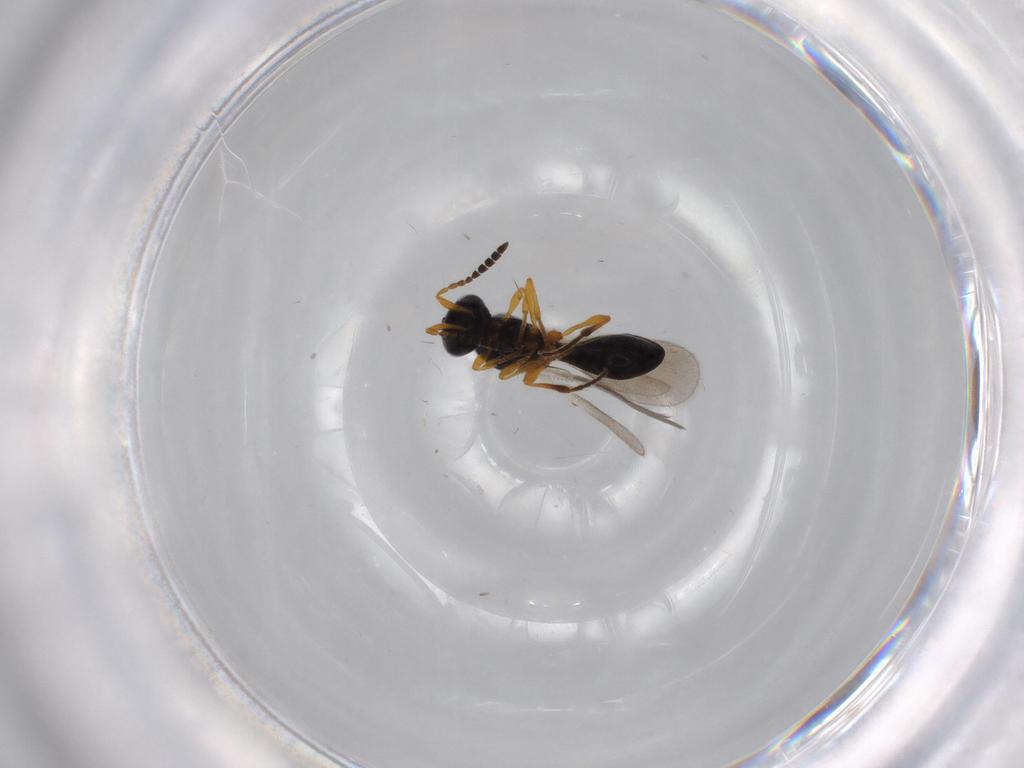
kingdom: Animalia
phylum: Arthropoda
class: Insecta
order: Hymenoptera
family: Platygastridae
